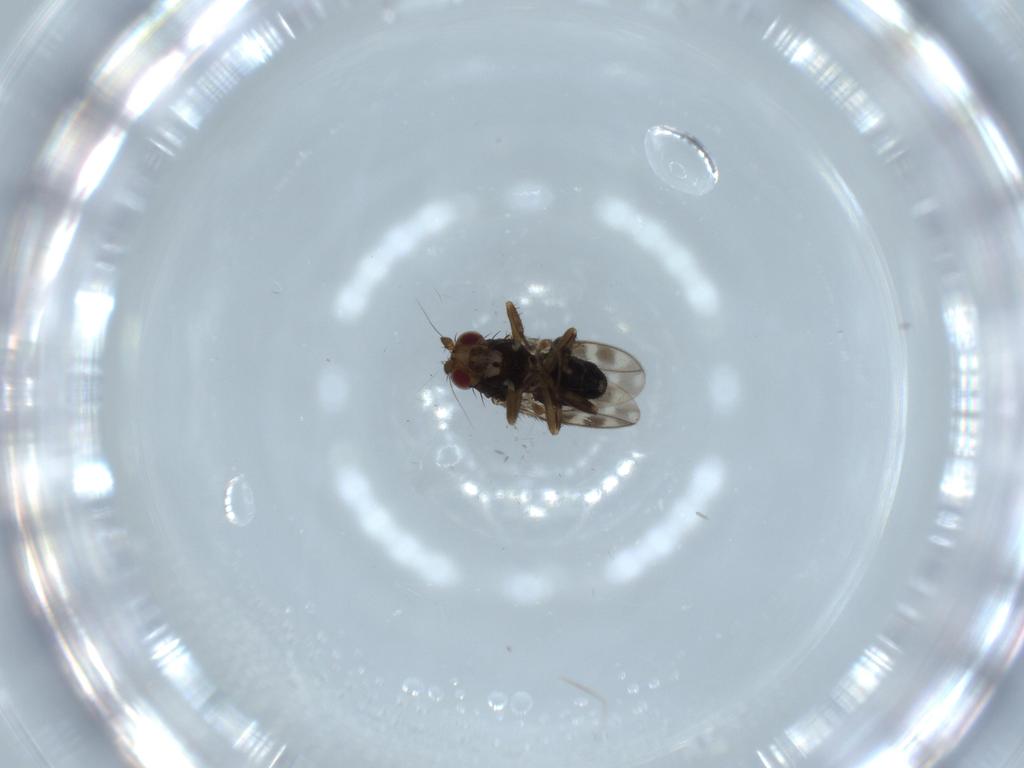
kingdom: Animalia
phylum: Arthropoda
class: Insecta
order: Diptera
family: Sphaeroceridae
